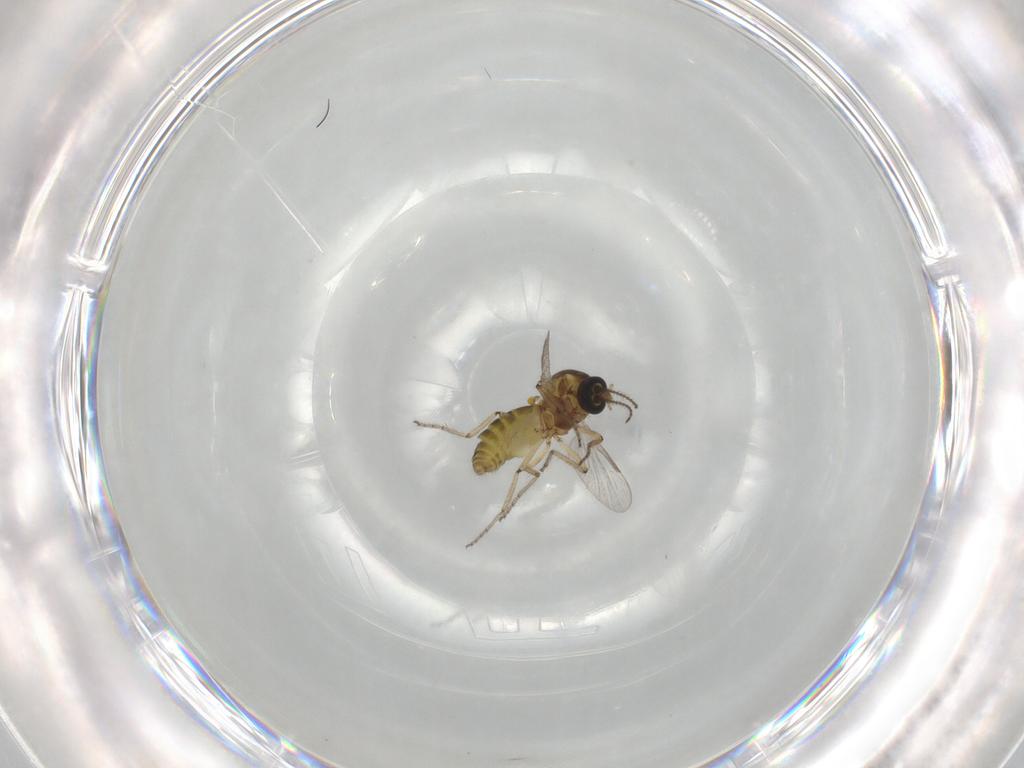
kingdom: Animalia
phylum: Arthropoda
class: Insecta
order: Diptera
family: Ceratopogonidae
